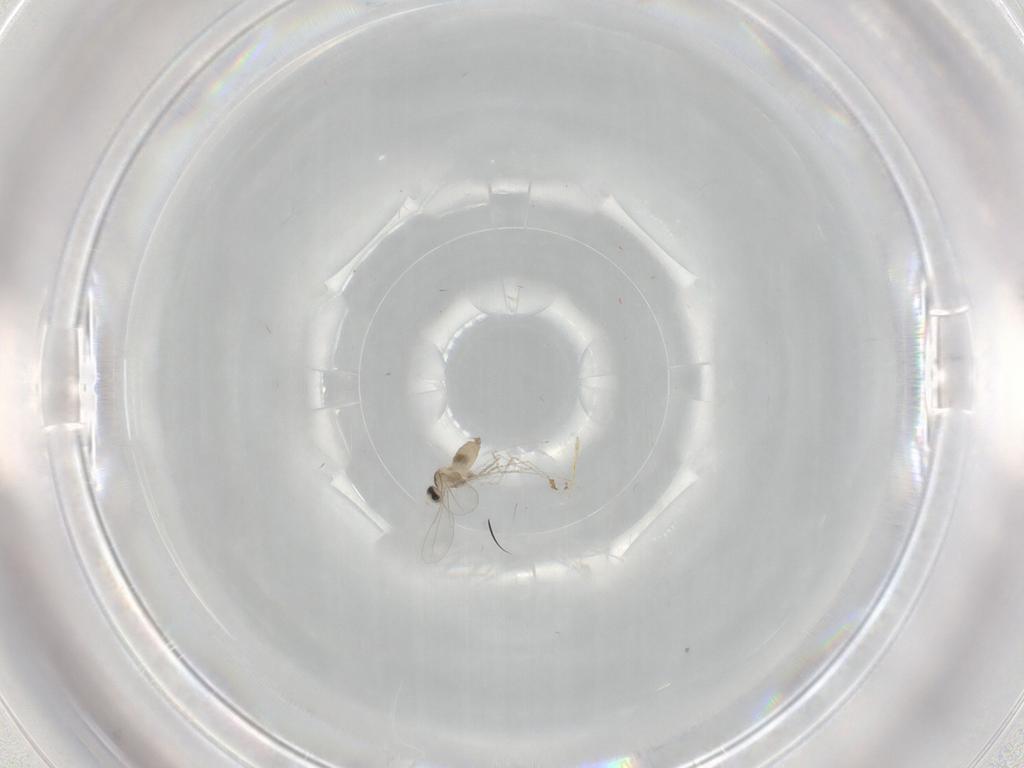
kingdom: Animalia
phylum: Arthropoda
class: Insecta
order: Diptera
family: Cecidomyiidae
